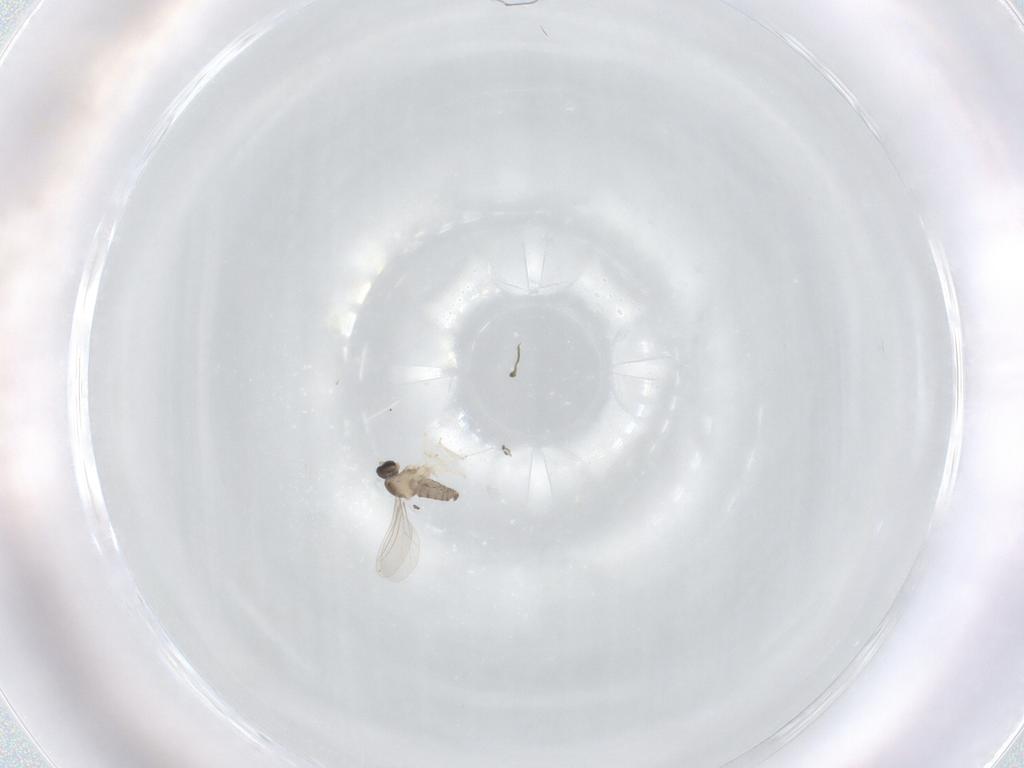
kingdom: Animalia
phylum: Arthropoda
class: Insecta
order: Diptera
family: Cecidomyiidae
